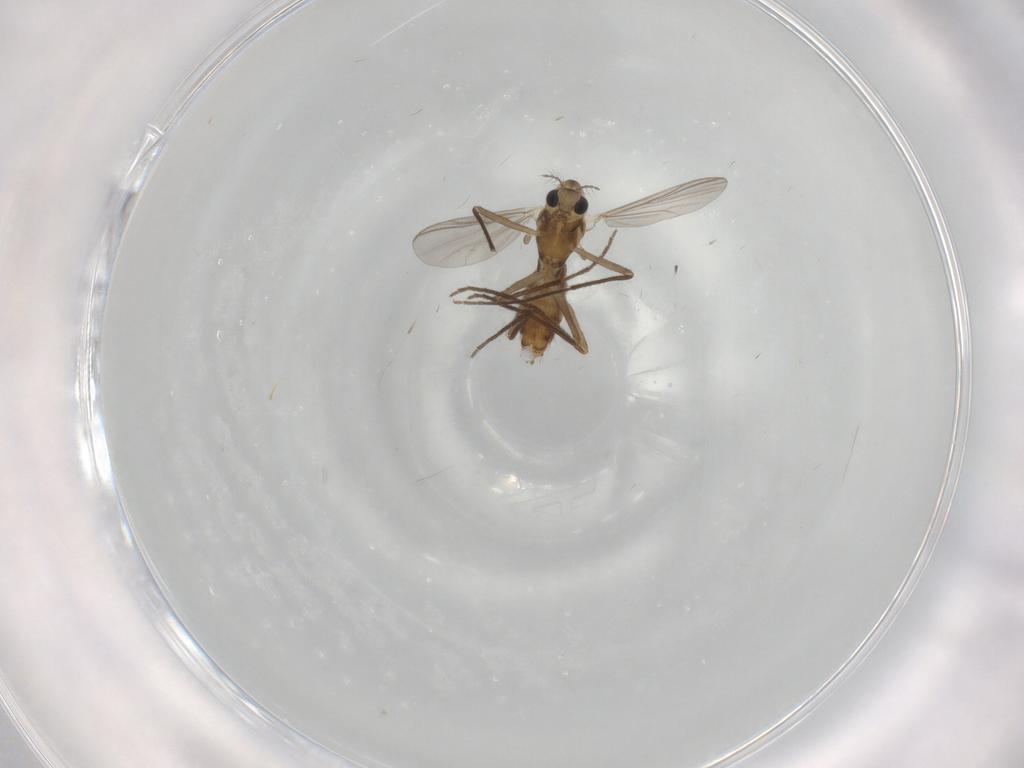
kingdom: Animalia
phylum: Arthropoda
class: Insecta
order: Diptera
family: Chironomidae
